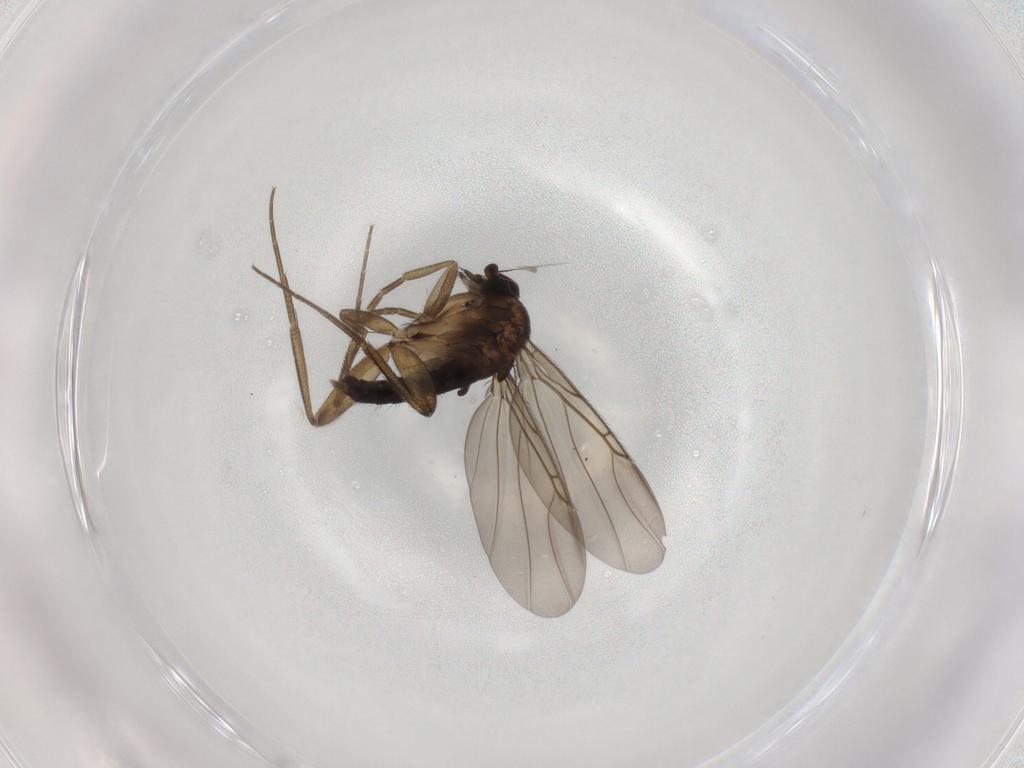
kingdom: Animalia
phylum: Arthropoda
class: Insecta
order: Diptera
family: Phoridae
